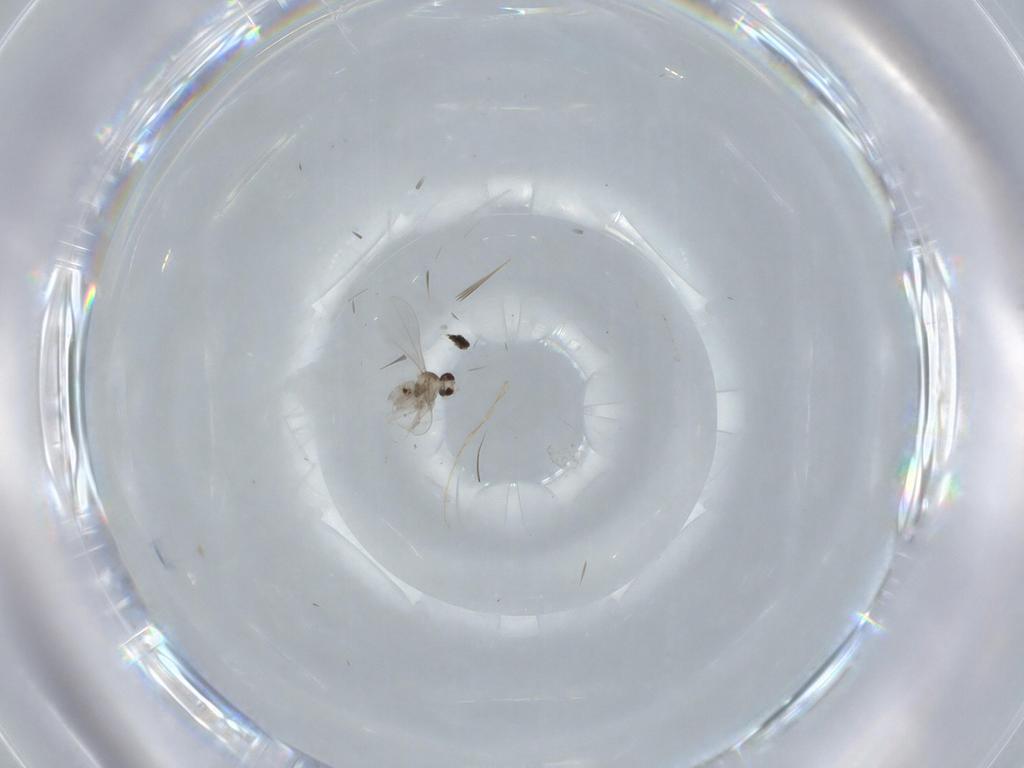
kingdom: Animalia
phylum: Arthropoda
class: Insecta
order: Diptera
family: Cecidomyiidae
